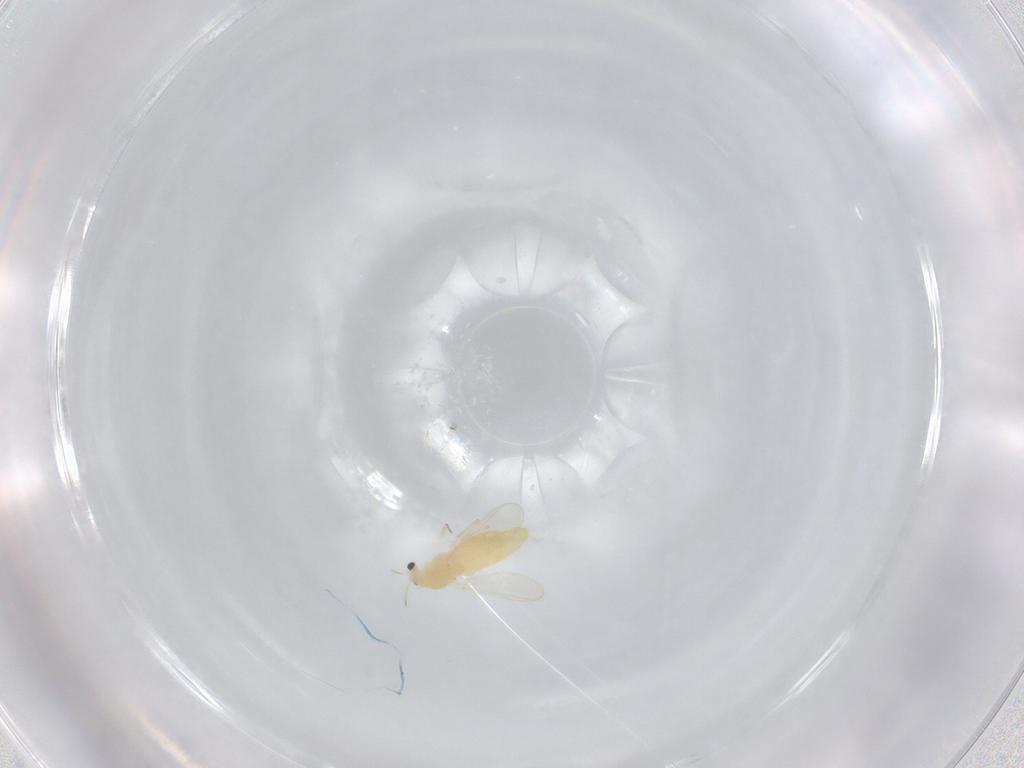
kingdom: Animalia
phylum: Arthropoda
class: Insecta
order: Diptera
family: Chironomidae
